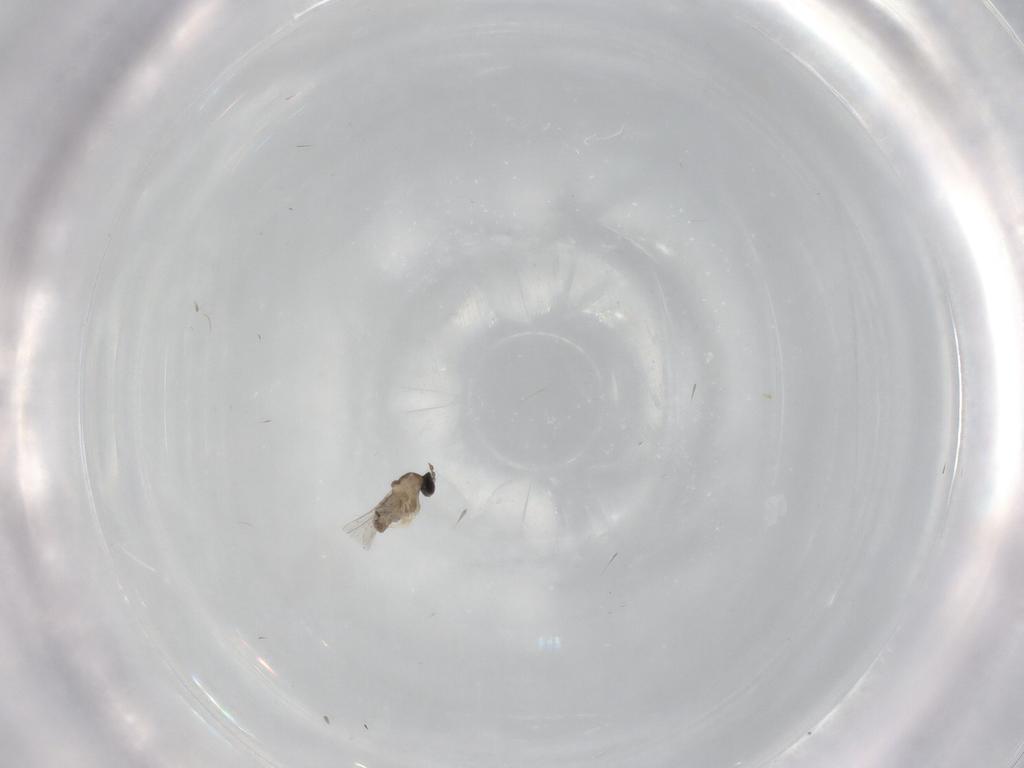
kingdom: Animalia
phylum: Arthropoda
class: Insecta
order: Diptera
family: Cecidomyiidae
